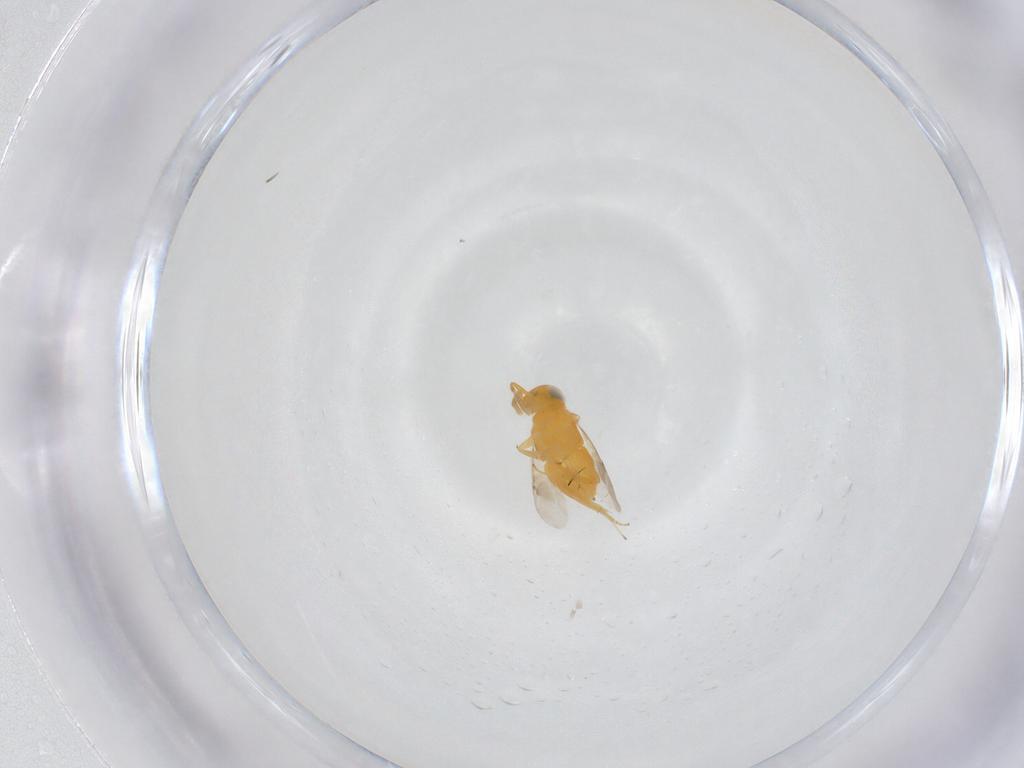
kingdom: Animalia
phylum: Arthropoda
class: Insecta
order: Hymenoptera
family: Encyrtidae
